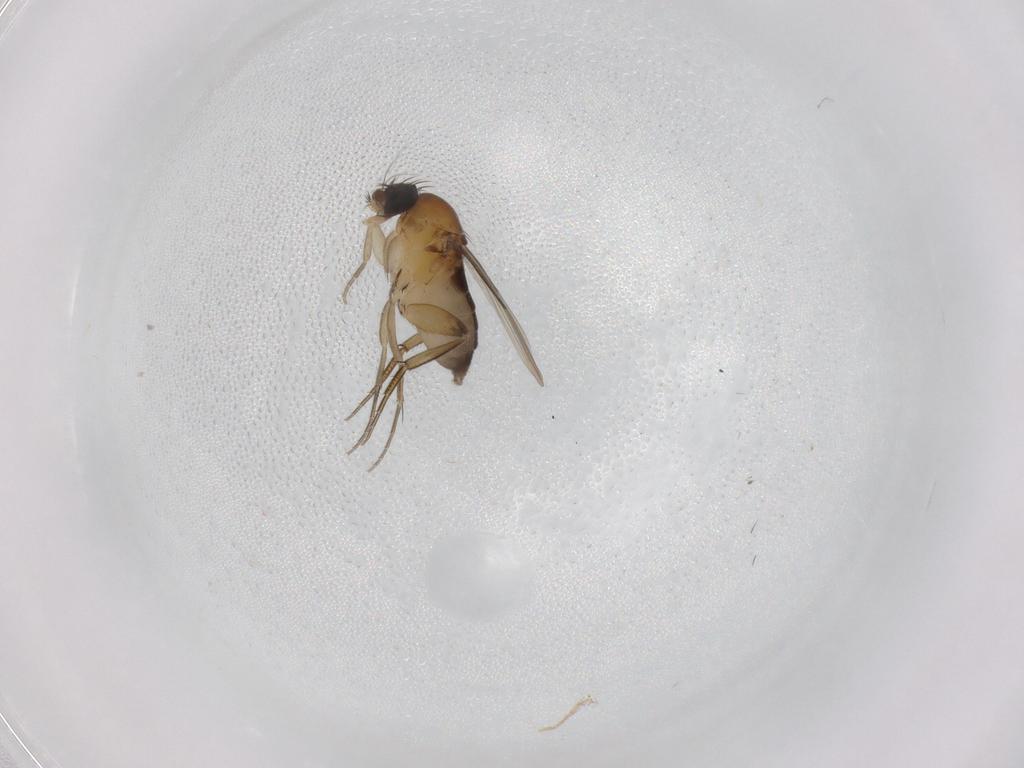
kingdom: Animalia
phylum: Arthropoda
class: Insecta
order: Diptera
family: Phoridae
